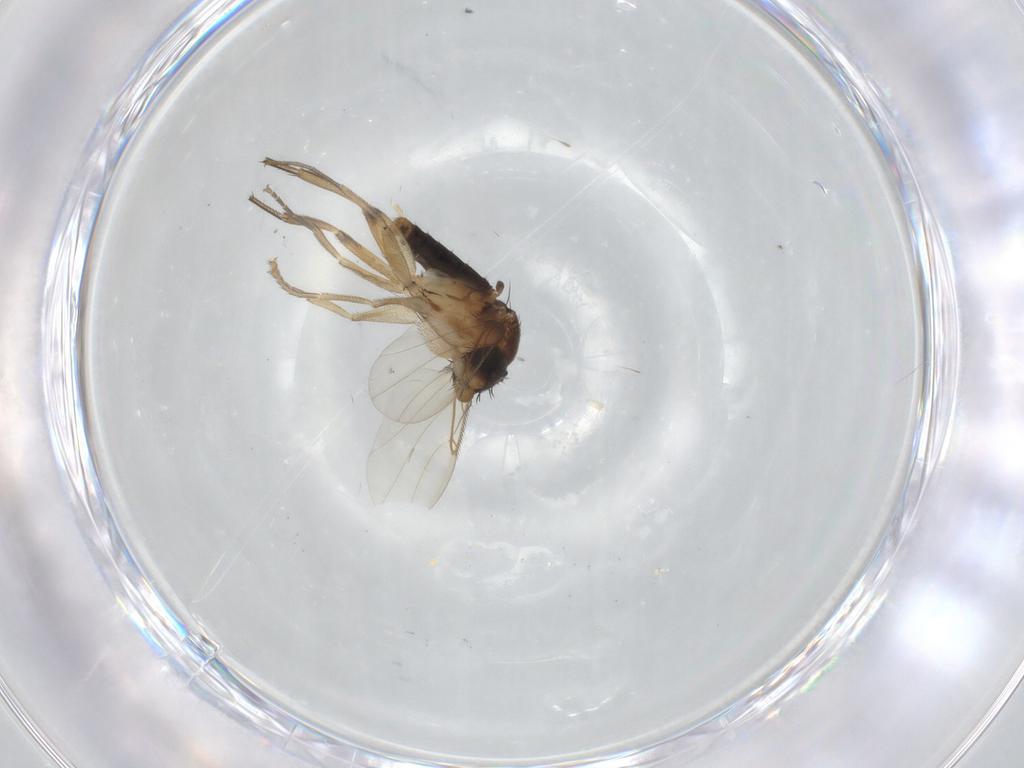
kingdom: Animalia
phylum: Arthropoda
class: Insecta
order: Diptera
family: Phoridae
